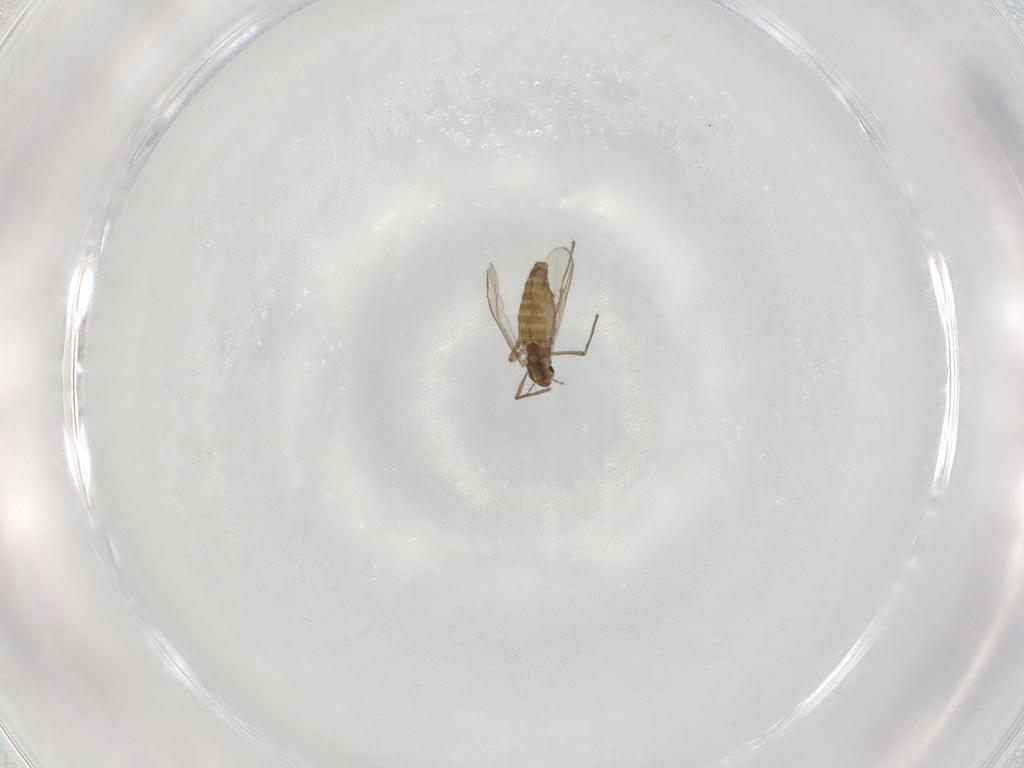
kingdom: Animalia
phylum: Arthropoda
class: Insecta
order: Diptera
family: Chironomidae
